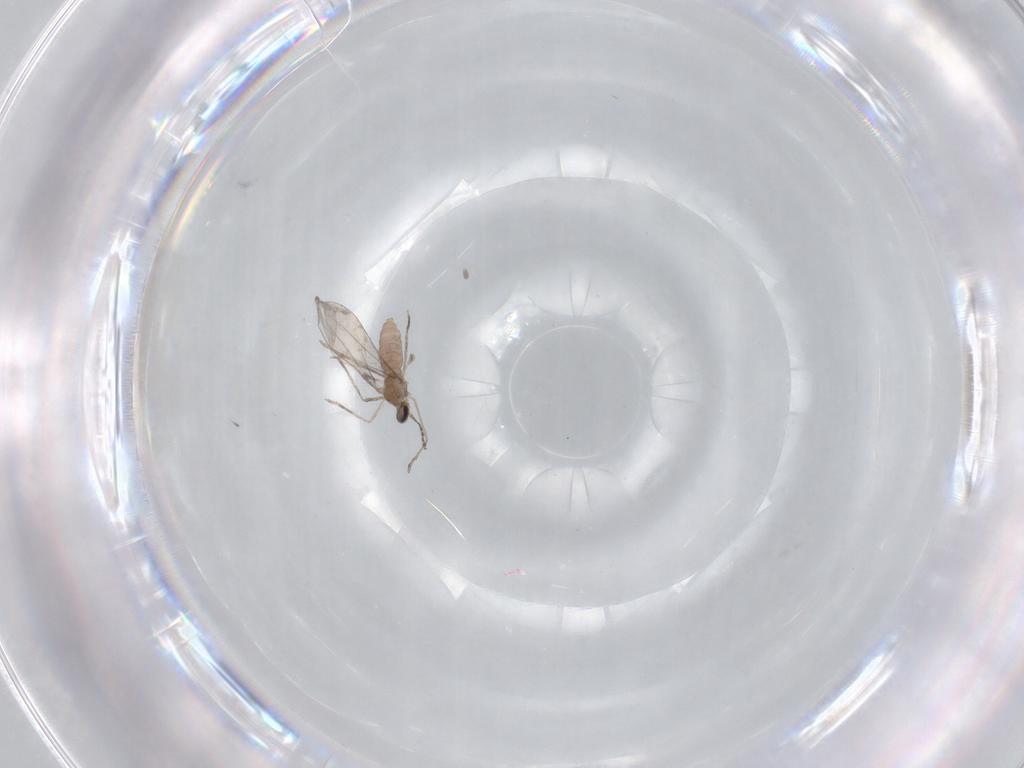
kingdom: Animalia
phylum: Arthropoda
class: Insecta
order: Diptera
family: Cecidomyiidae
